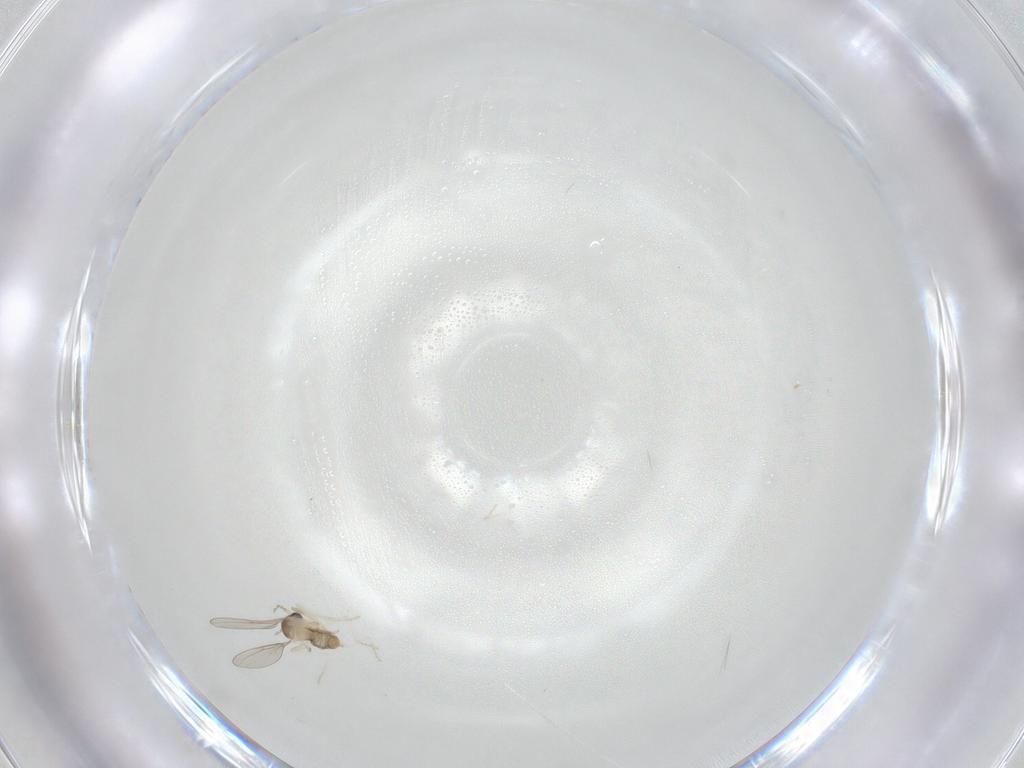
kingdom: Animalia
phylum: Arthropoda
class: Insecta
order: Diptera
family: Cecidomyiidae
